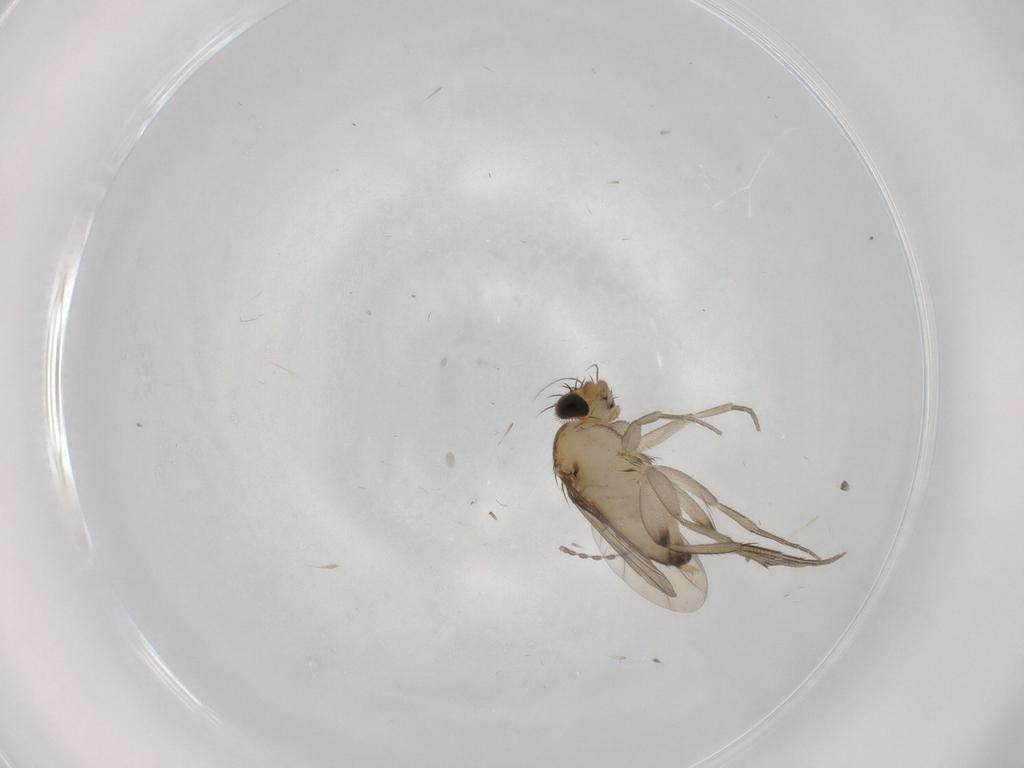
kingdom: Animalia
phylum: Arthropoda
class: Insecta
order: Diptera
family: Phoridae
